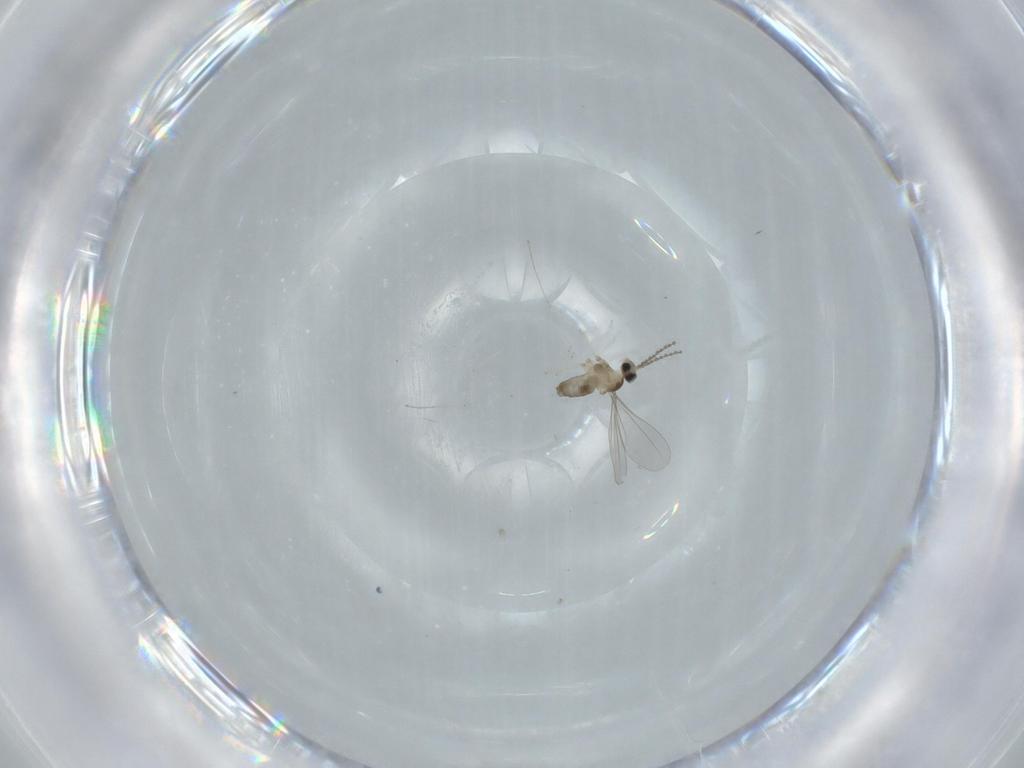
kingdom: Animalia
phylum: Arthropoda
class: Insecta
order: Diptera
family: Cecidomyiidae
